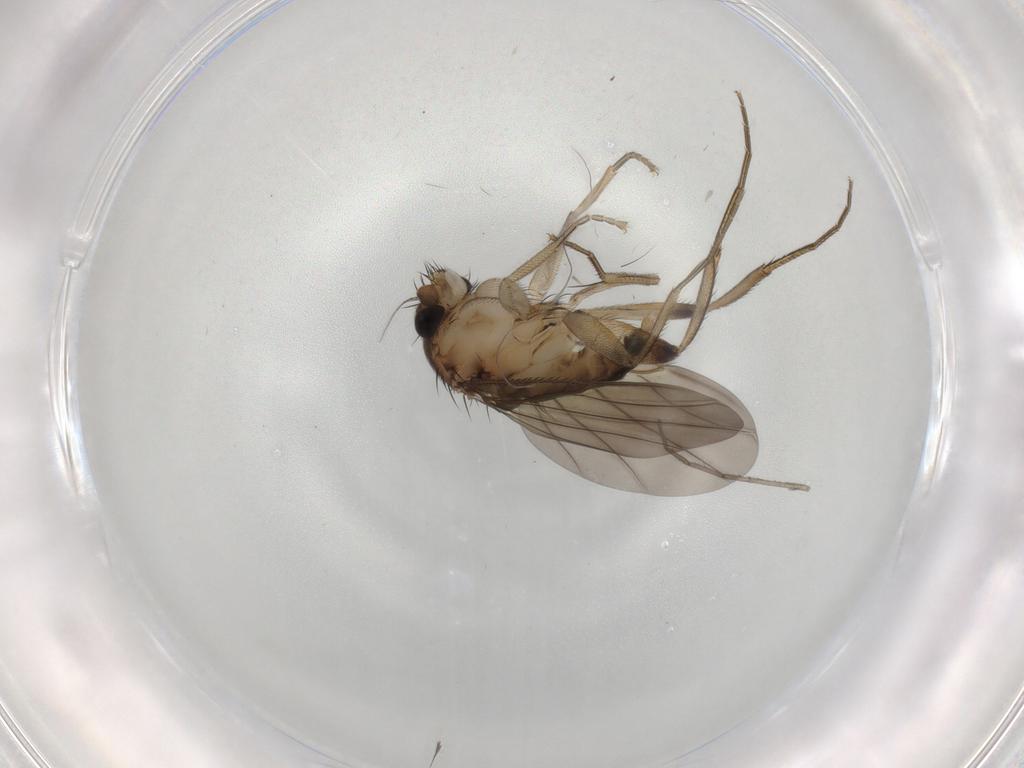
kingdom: Animalia
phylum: Arthropoda
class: Insecta
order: Diptera
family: Phoridae
